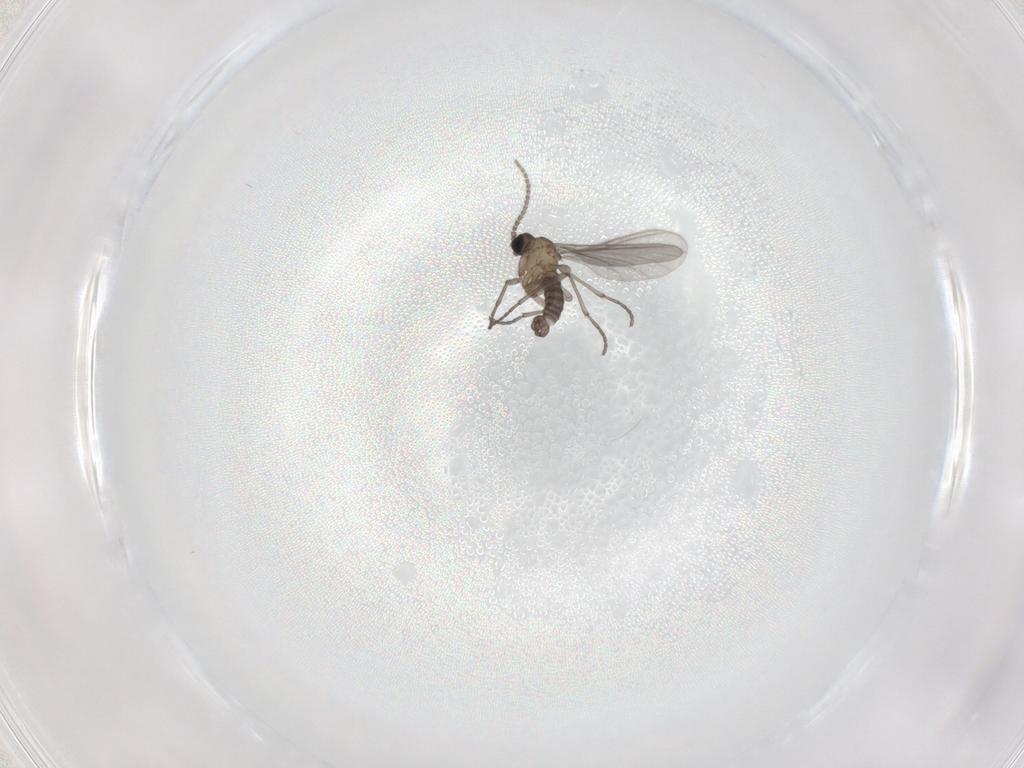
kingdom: Animalia
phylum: Arthropoda
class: Insecta
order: Diptera
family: Sciaridae
